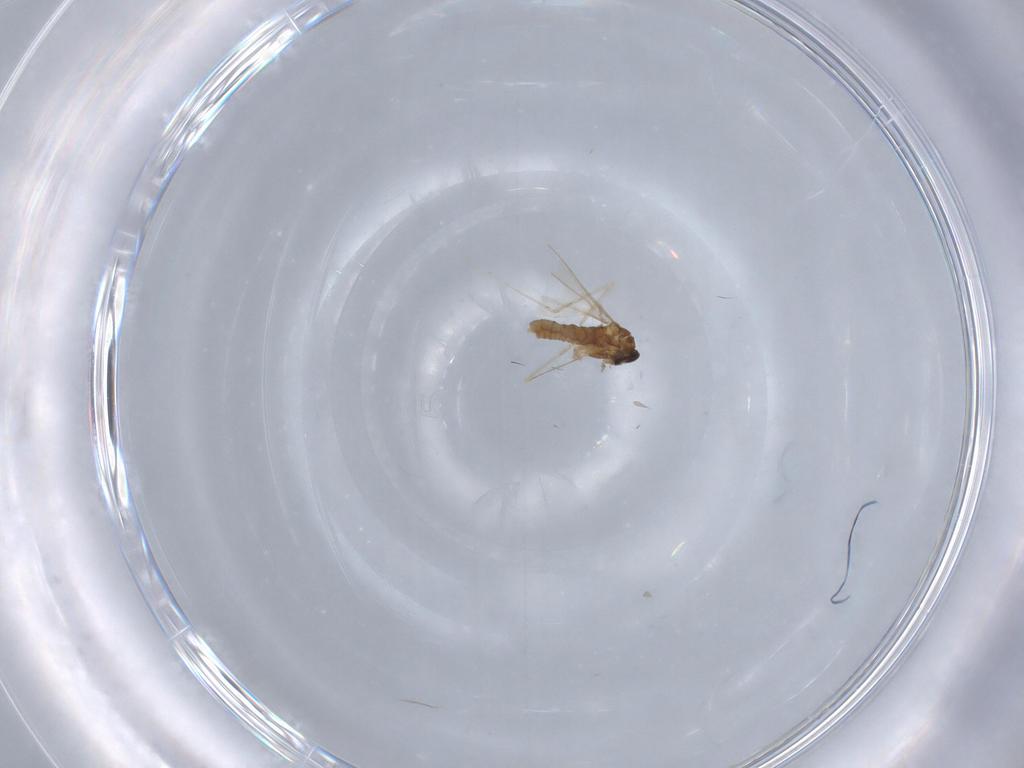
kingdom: Animalia
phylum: Arthropoda
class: Insecta
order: Diptera
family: Cecidomyiidae
